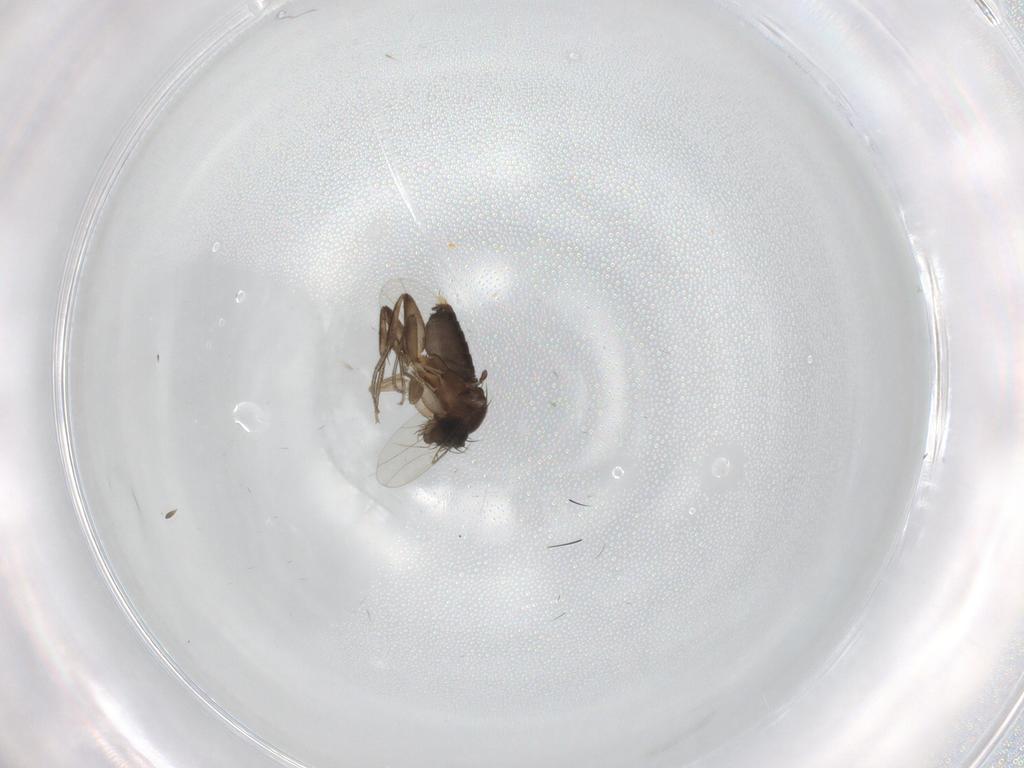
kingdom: Animalia
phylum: Arthropoda
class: Insecta
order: Diptera
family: Phoridae
